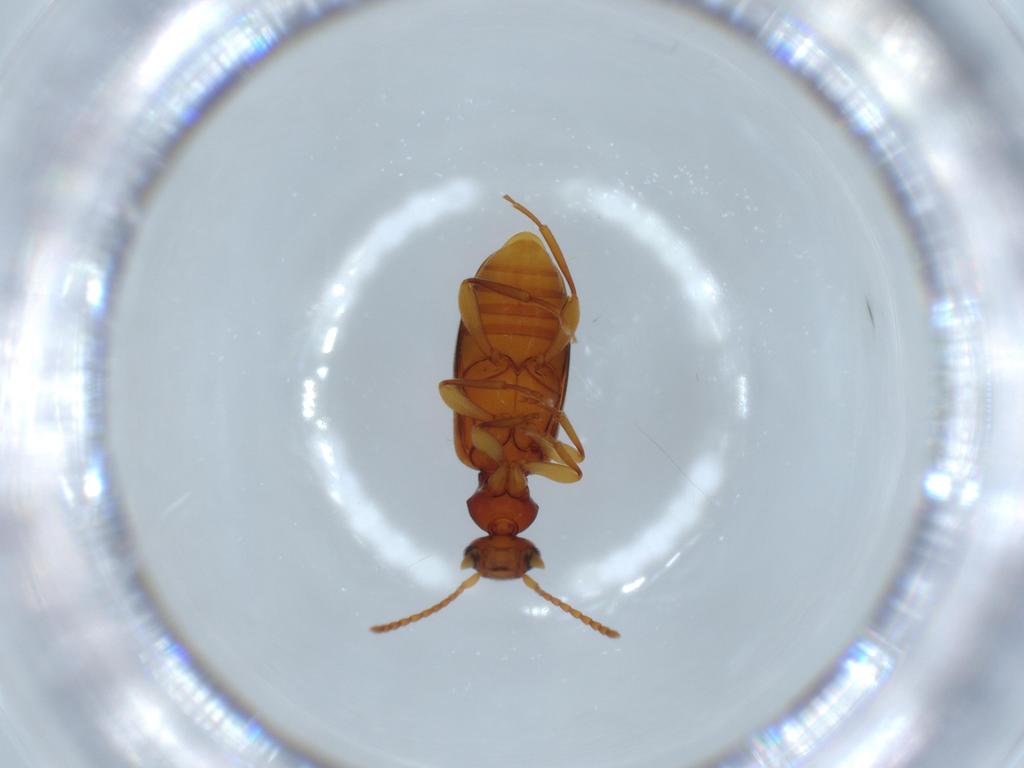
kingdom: Animalia
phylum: Arthropoda
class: Insecta
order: Coleoptera
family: Anthicidae
